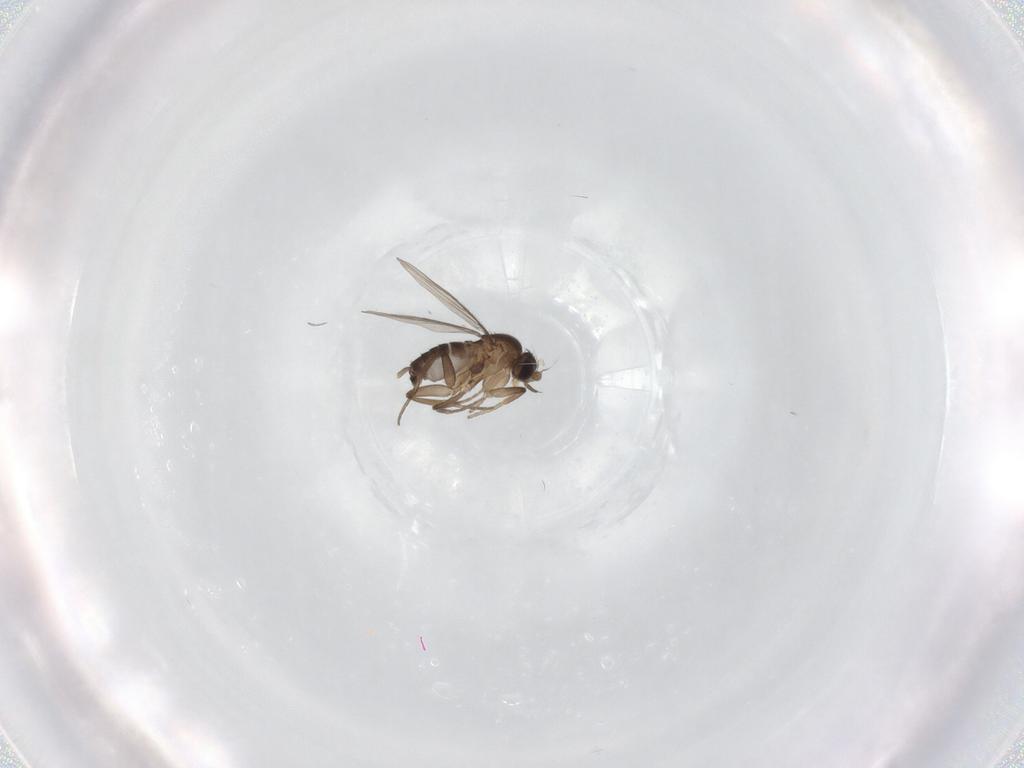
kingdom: Animalia
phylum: Arthropoda
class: Insecta
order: Diptera
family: Phoridae
